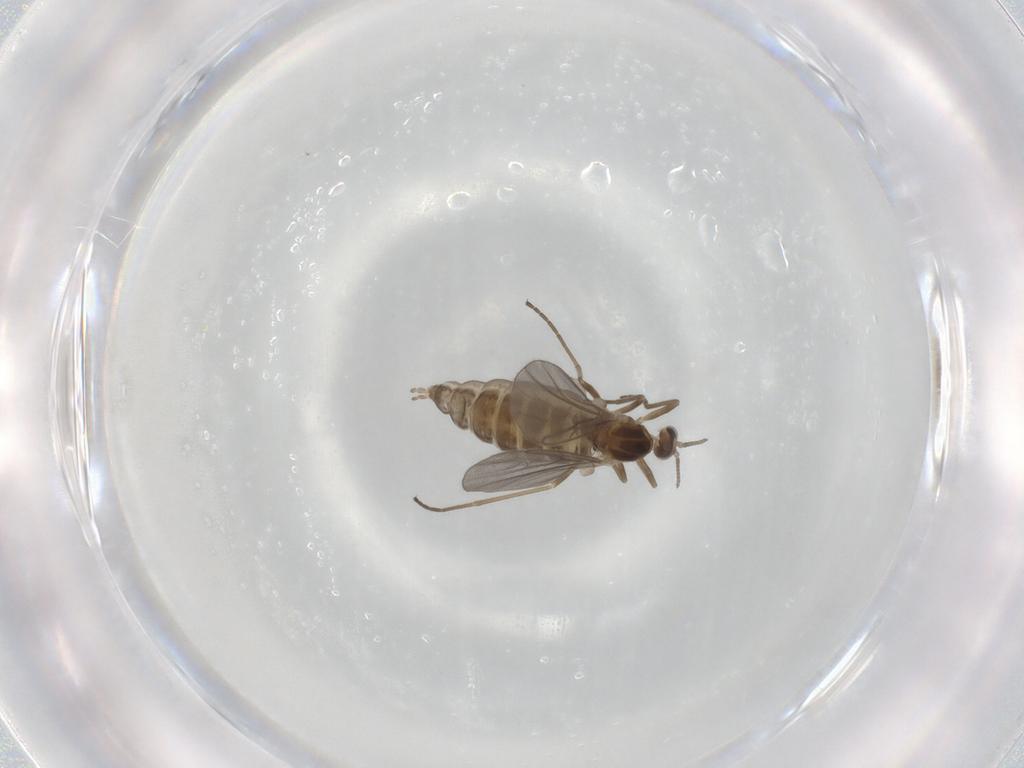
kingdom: Animalia
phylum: Arthropoda
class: Insecta
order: Diptera
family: Cecidomyiidae
